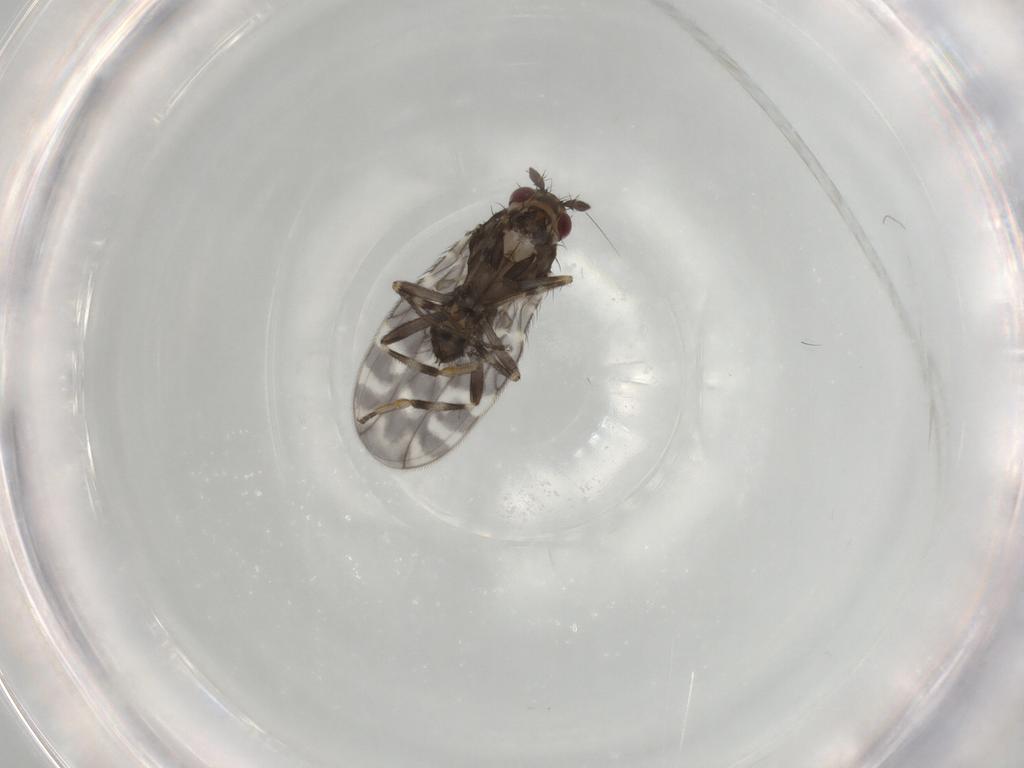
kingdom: Animalia
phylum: Arthropoda
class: Insecta
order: Diptera
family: Sphaeroceridae
